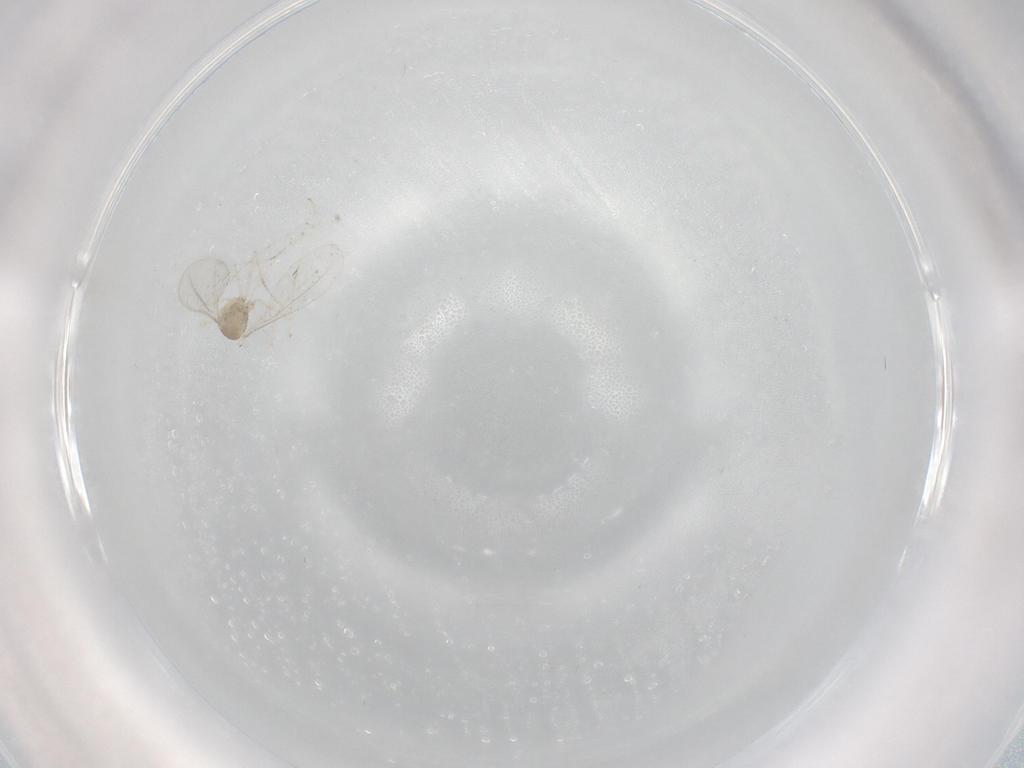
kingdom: Animalia
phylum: Arthropoda
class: Insecta
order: Diptera
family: Cecidomyiidae
